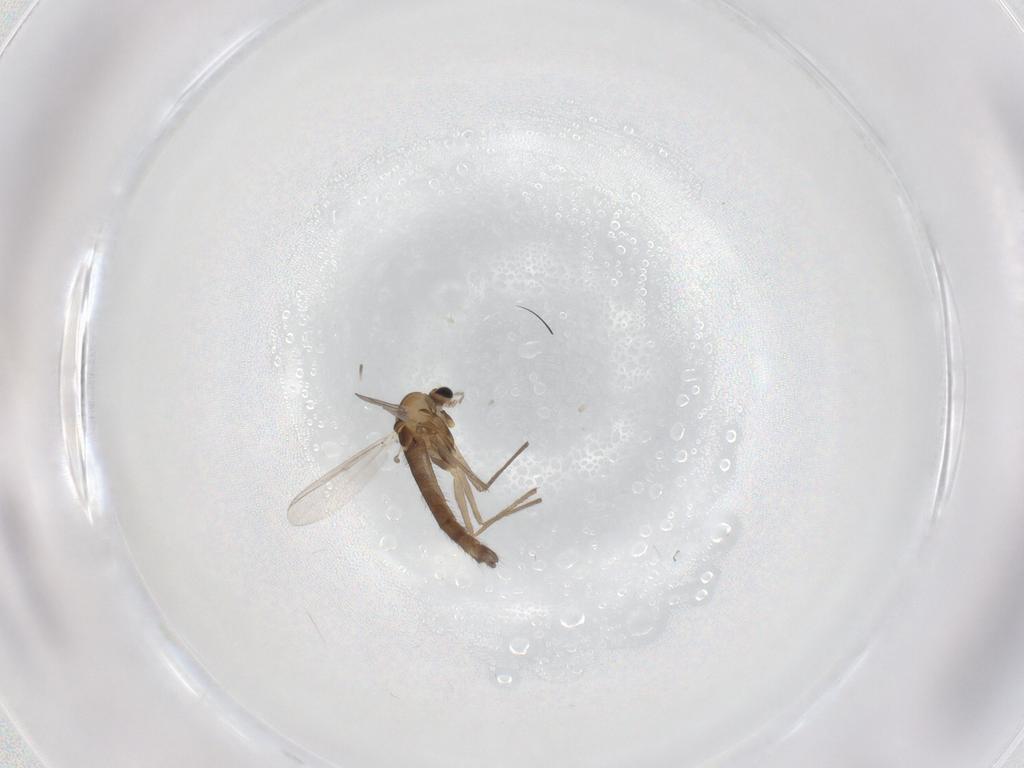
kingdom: Animalia
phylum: Arthropoda
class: Insecta
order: Diptera
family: Chironomidae
